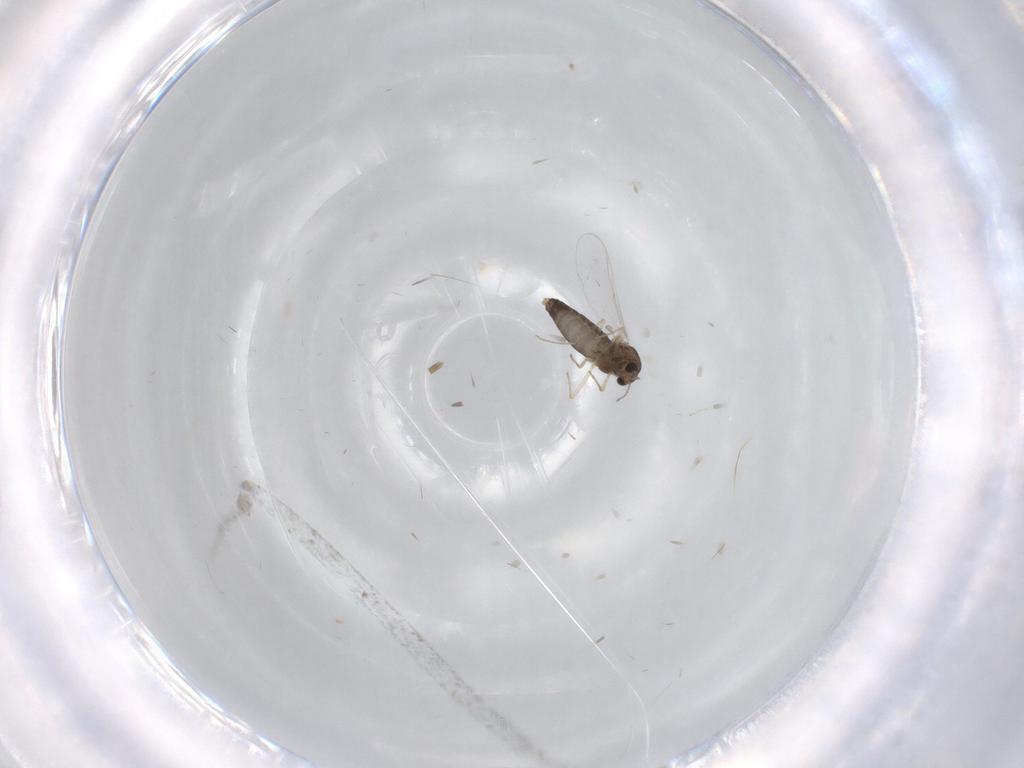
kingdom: Animalia
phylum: Arthropoda
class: Insecta
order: Diptera
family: Chironomidae
